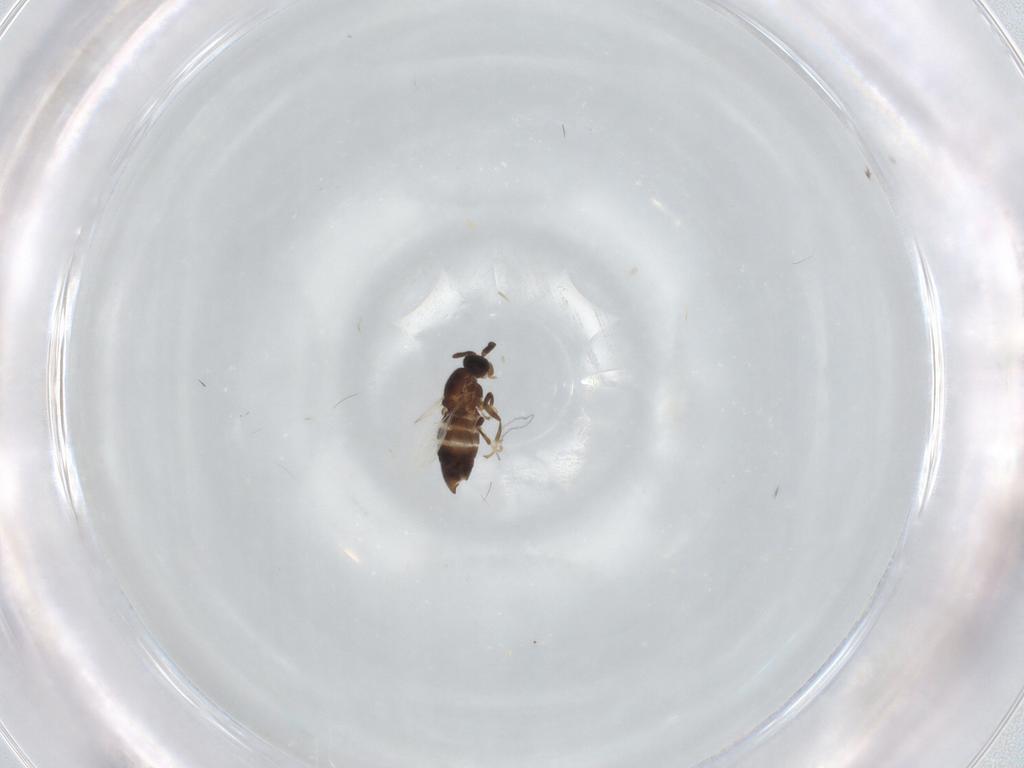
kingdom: Animalia
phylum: Arthropoda
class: Insecta
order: Diptera
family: Scatopsidae
